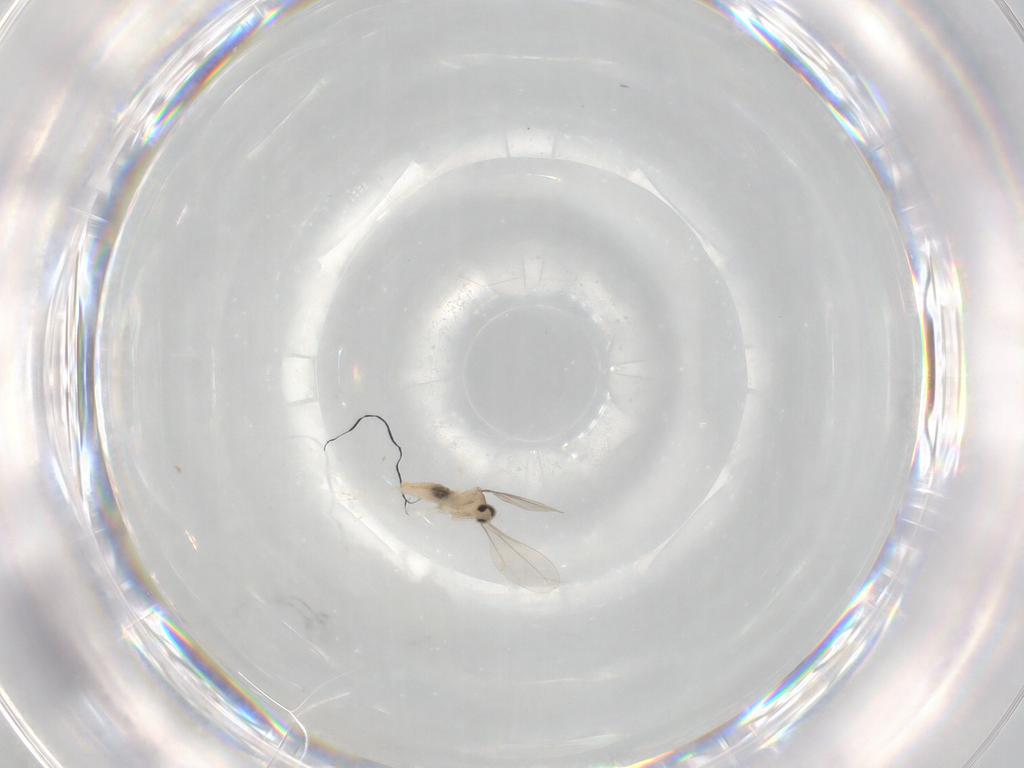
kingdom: Animalia
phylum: Arthropoda
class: Insecta
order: Diptera
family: Cecidomyiidae
